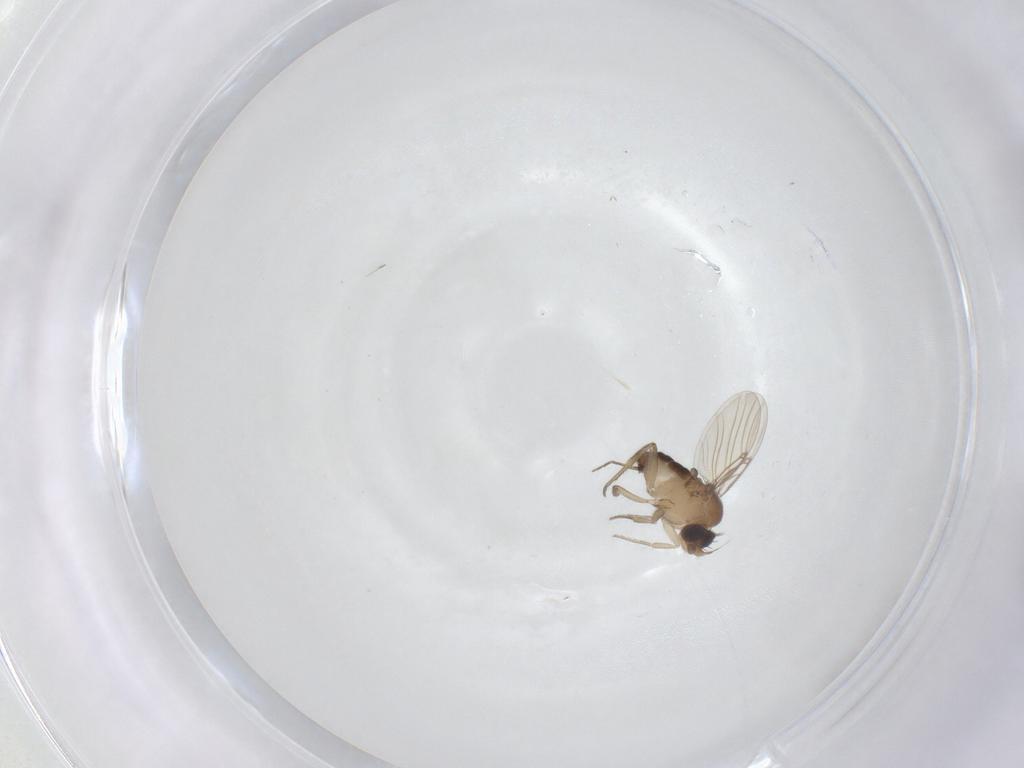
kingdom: Animalia
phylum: Arthropoda
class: Insecta
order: Diptera
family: Phoridae
